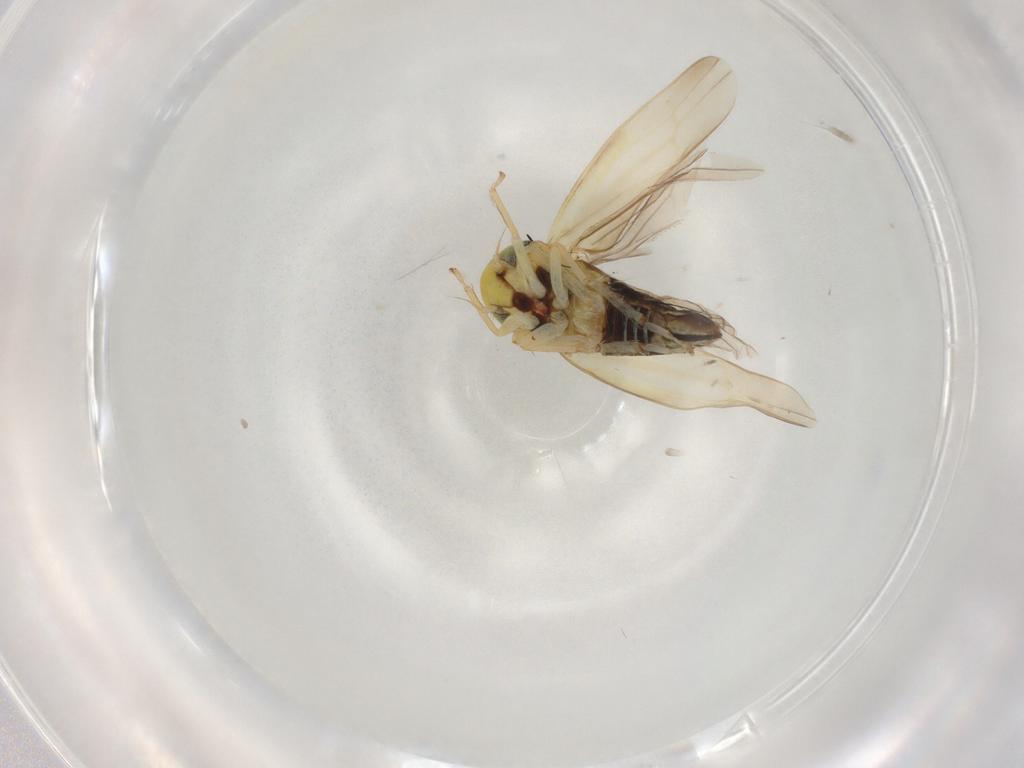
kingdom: Animalia
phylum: Arthropoda
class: Insecta
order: Hemiptera
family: Cicadellidae
